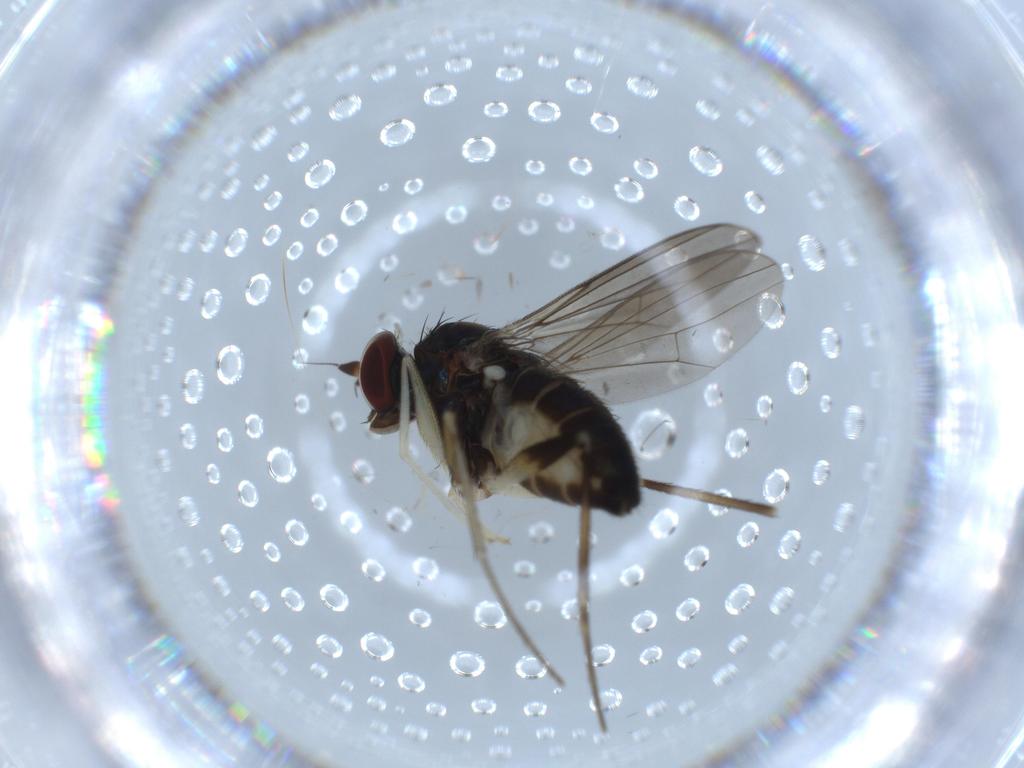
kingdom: Animalia
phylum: Arthropoda
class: Insecta
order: Diptera
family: Dolichopodidae
